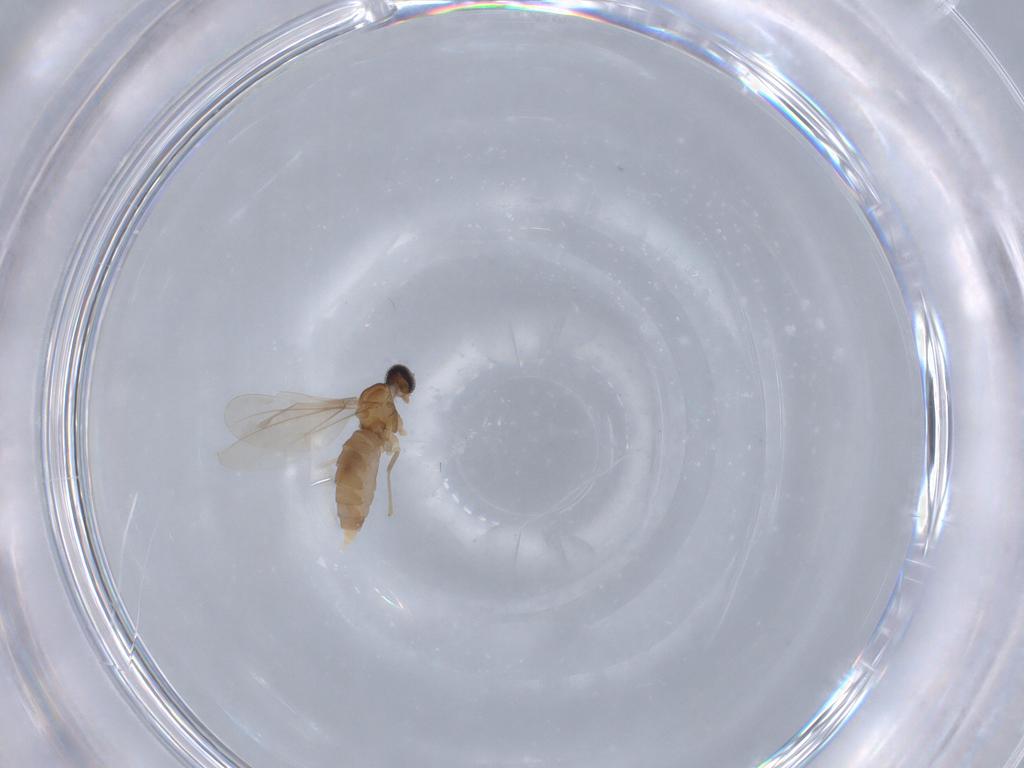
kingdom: Animalia
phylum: Arthropoda
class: Insecta
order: Diptera
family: Cecidomyiidae
